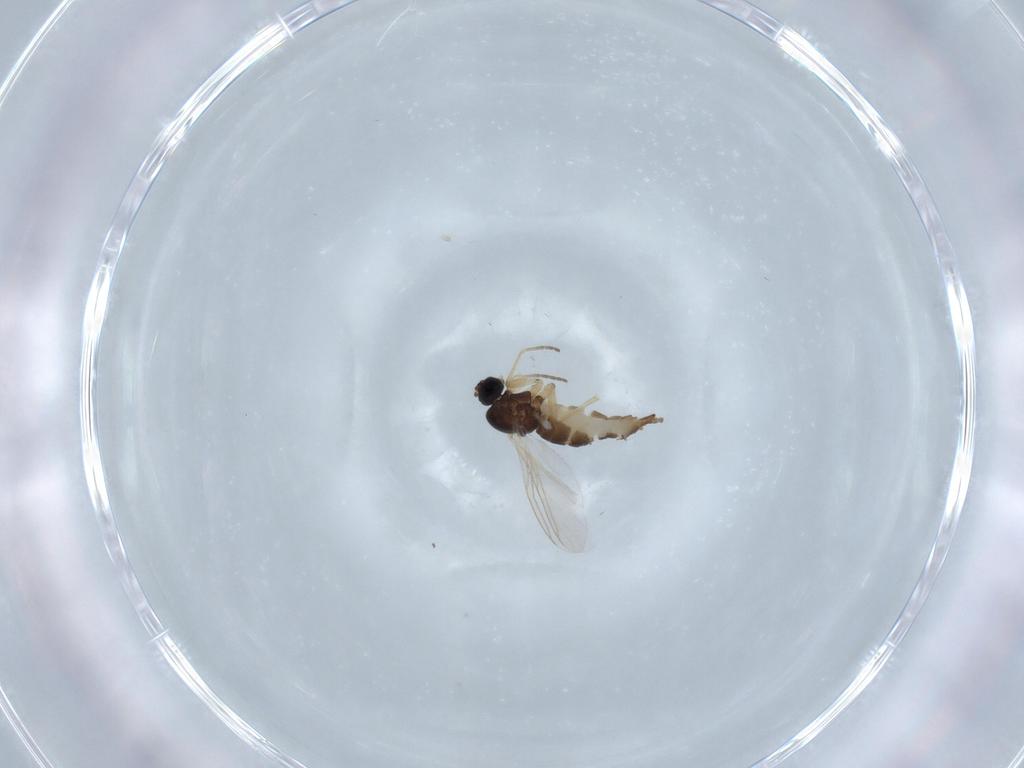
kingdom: Animalia
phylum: Arthropoda
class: Insecta
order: Diptera
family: Sciaridae
